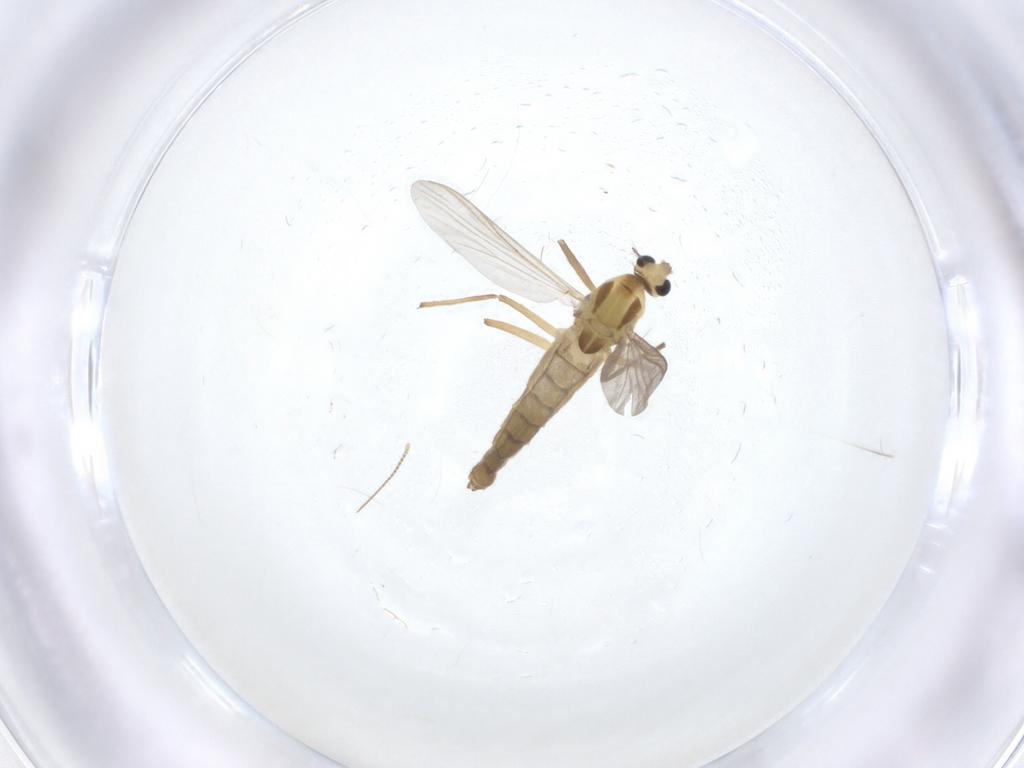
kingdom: Animalia
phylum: Arthropoda
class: Insecta
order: Diptera
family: Chironomidae
